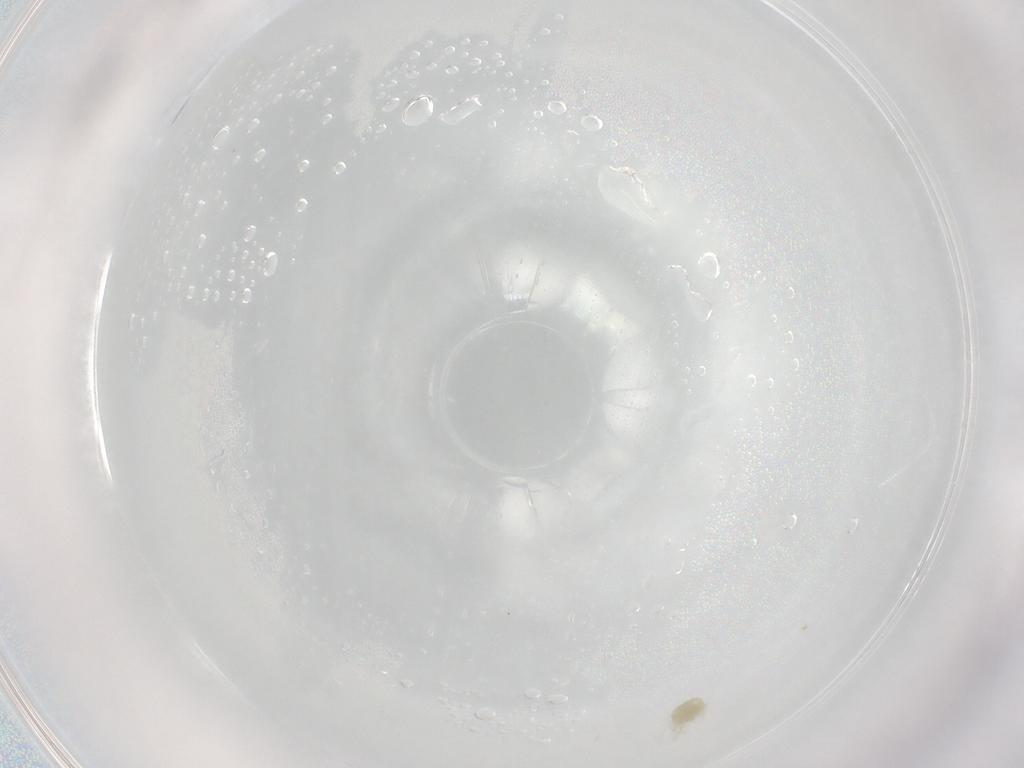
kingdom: Animalia
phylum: Arthropoda
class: Arachnida
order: Trombidiformes
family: Eupodidae
